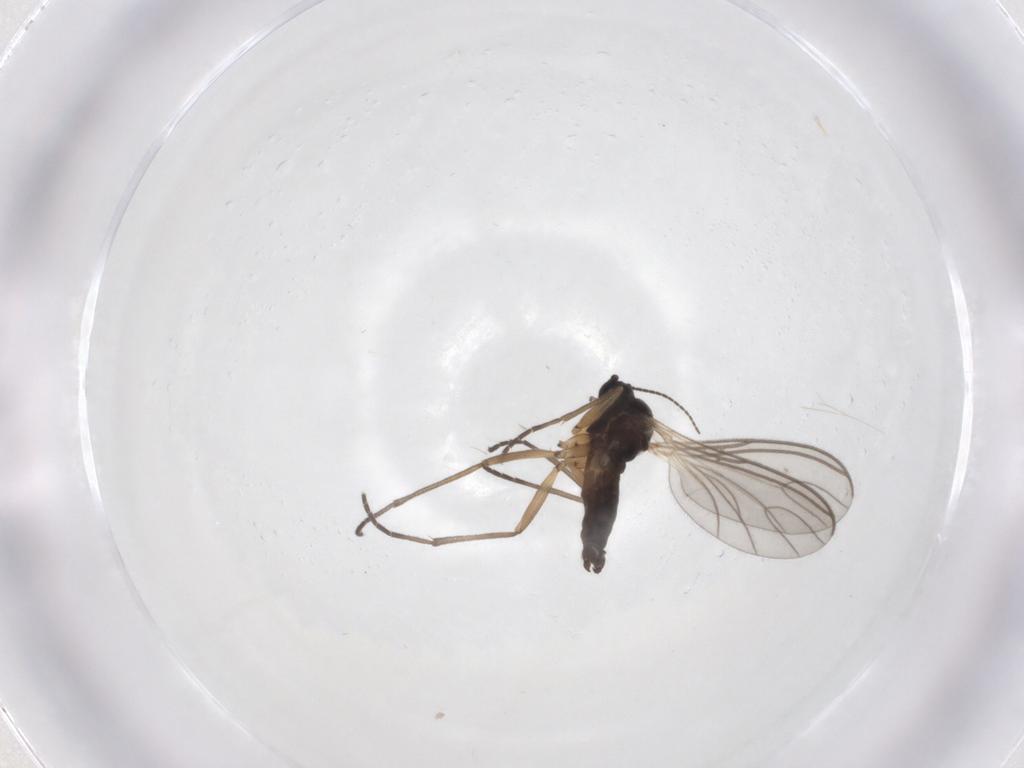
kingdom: Animalia
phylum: Arthropoda
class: Insecta
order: Diptera
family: Sciaridae
